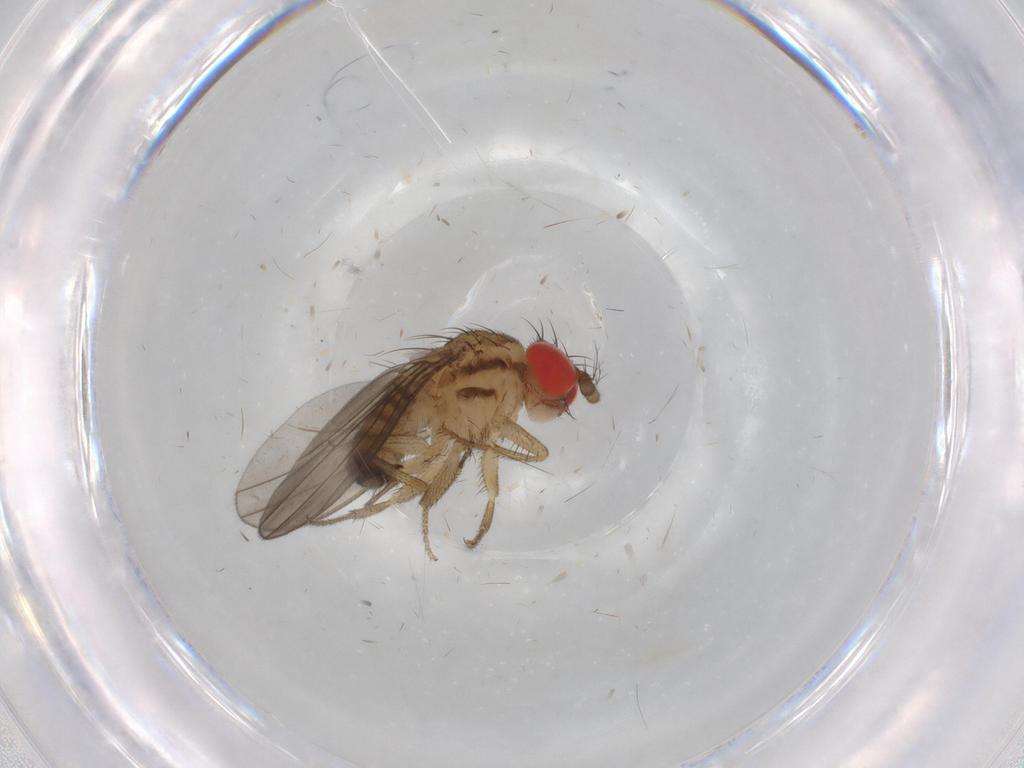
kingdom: Animalia
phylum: Arthropoda
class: Insecta
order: Diptera
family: Drosophilidae
